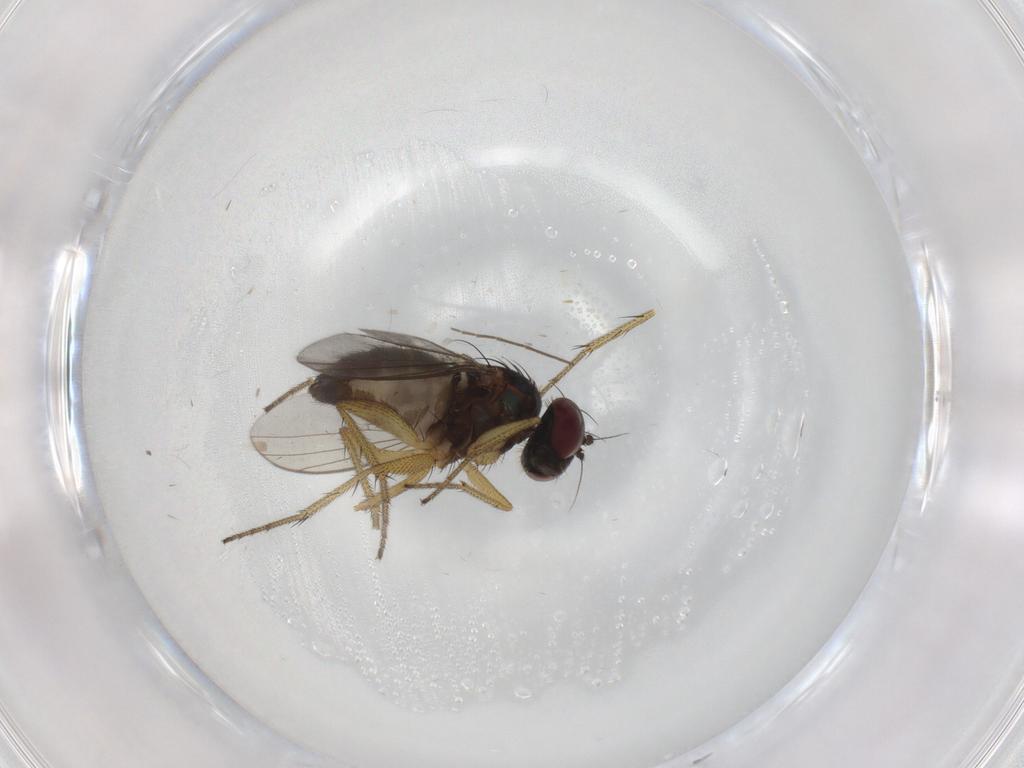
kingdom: Animalia
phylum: Arthropoda
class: Insecta
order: Diptera
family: Dolichopodidae
